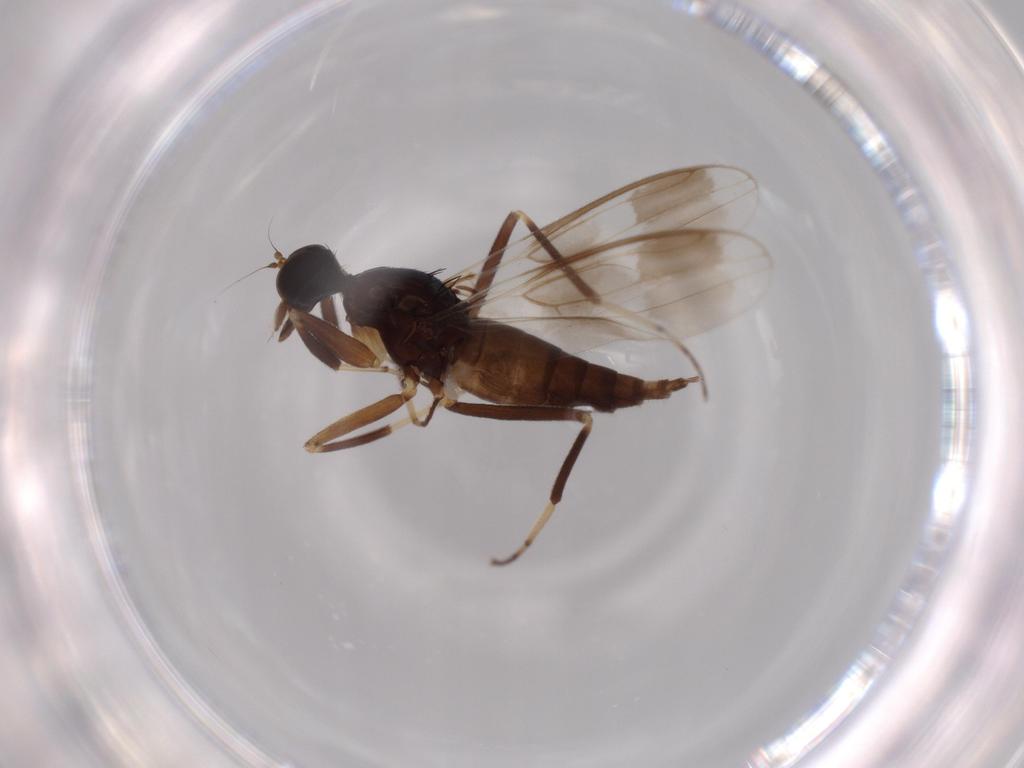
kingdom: Animalia
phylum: Arthropoda
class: Insecta
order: Diptera
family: Hybotidae
